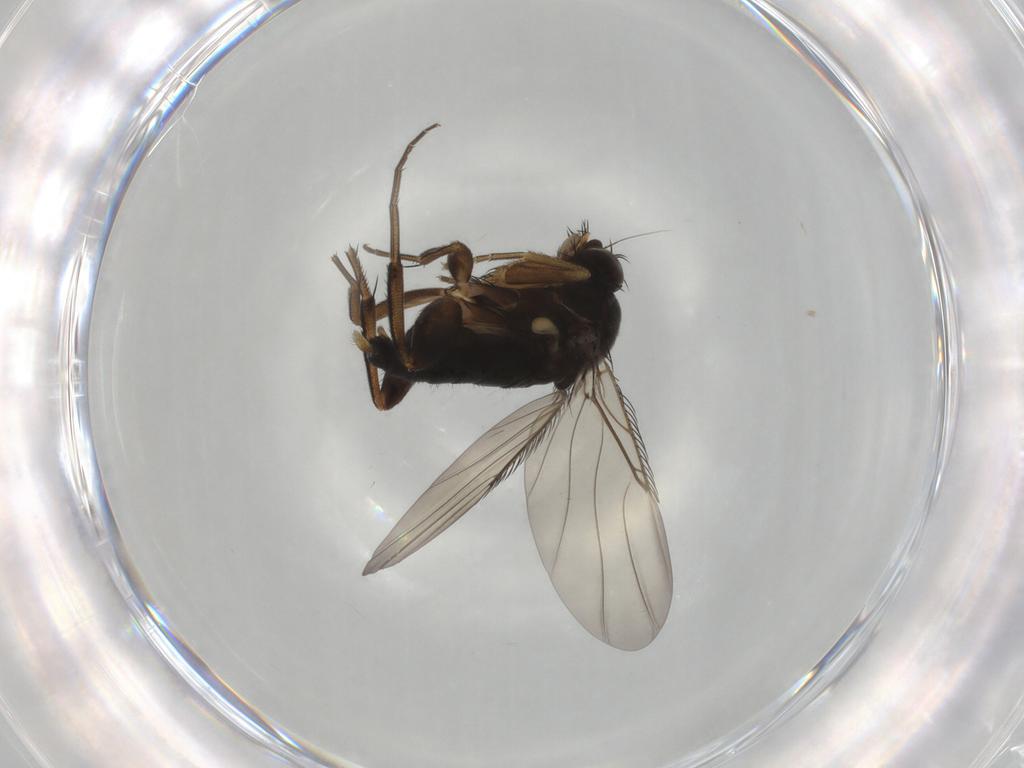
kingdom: Animalia
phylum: Arthropoda
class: Insecta
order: Diptera
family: Phoridae
